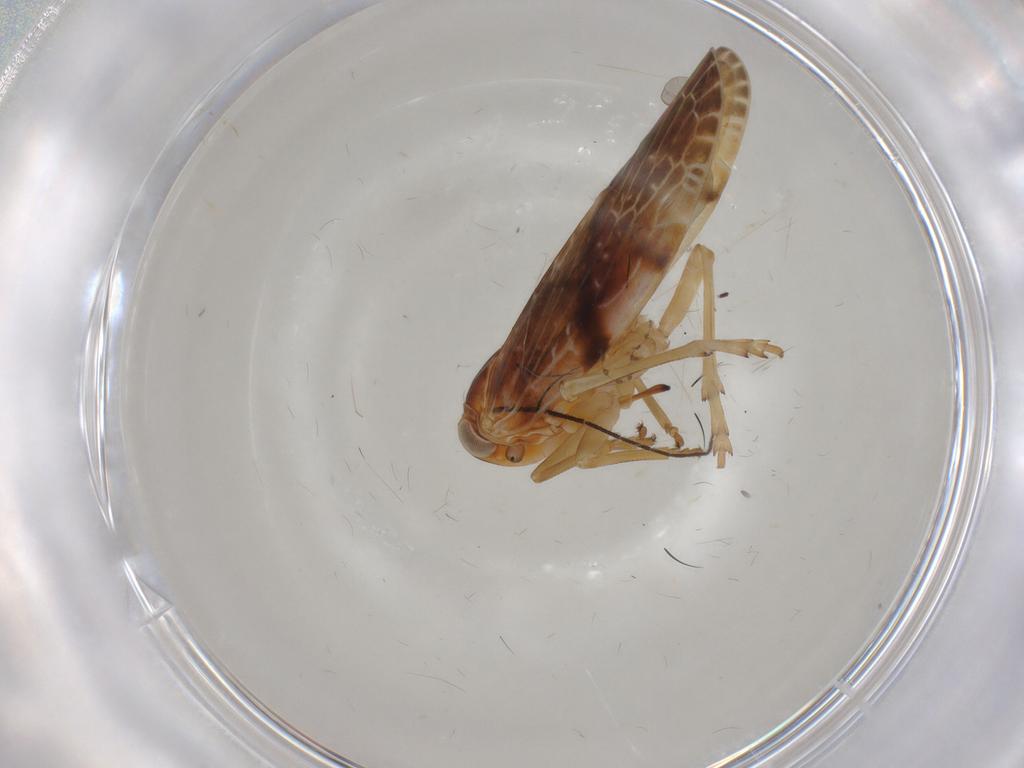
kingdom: Animalia
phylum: Arthropoda
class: Insecta
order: Hemiptera
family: Achilidae
